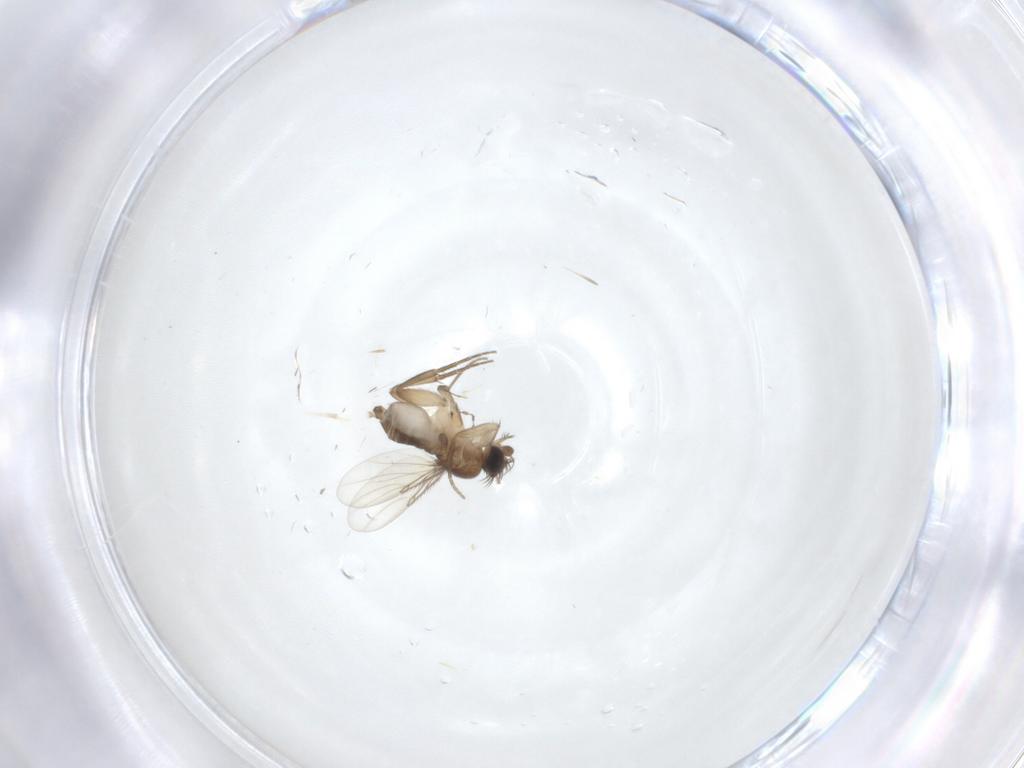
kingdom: Animalia
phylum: Arthropoda
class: Insecta
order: Diptera
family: Phoridae
